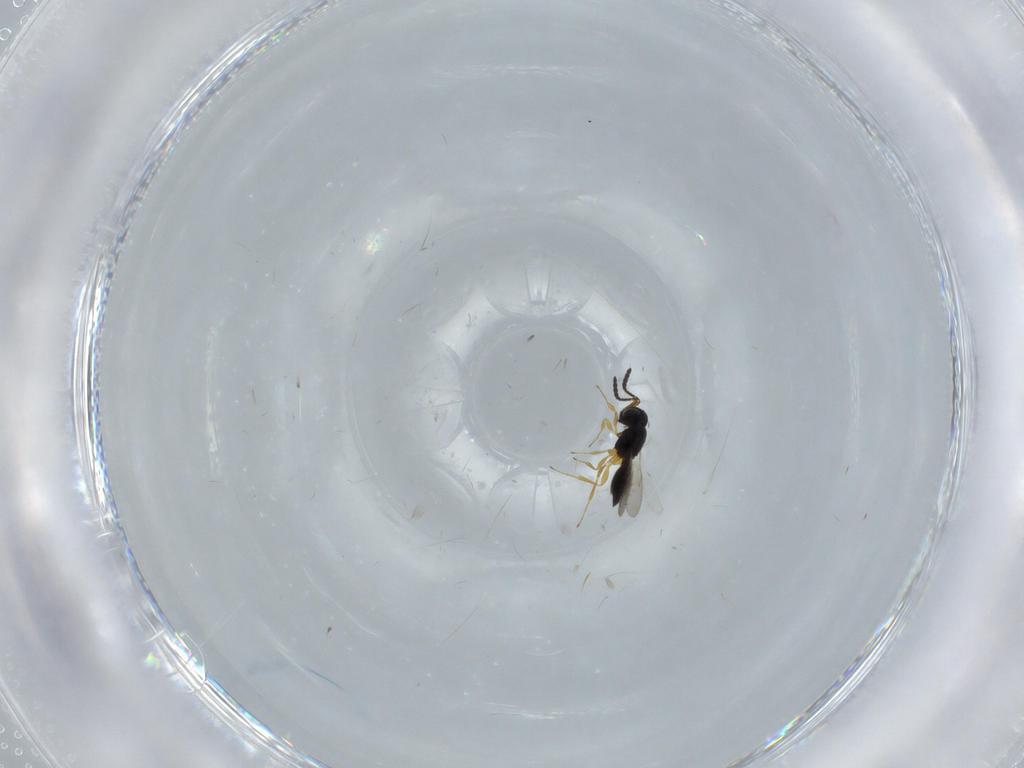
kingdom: Animalia
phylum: Arthropoda
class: Insecta
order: Hymenoptera
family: Scelionidae
